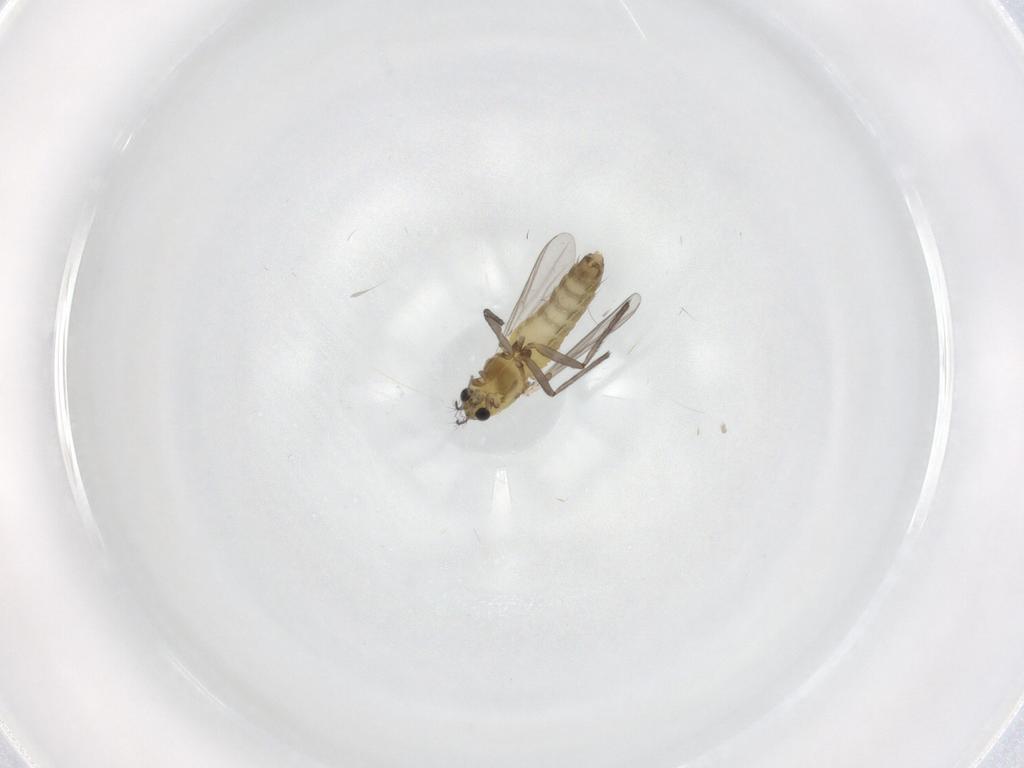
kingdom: Animalia
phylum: Arthropoda
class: Insecta
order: Diptera
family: Chironomidae
